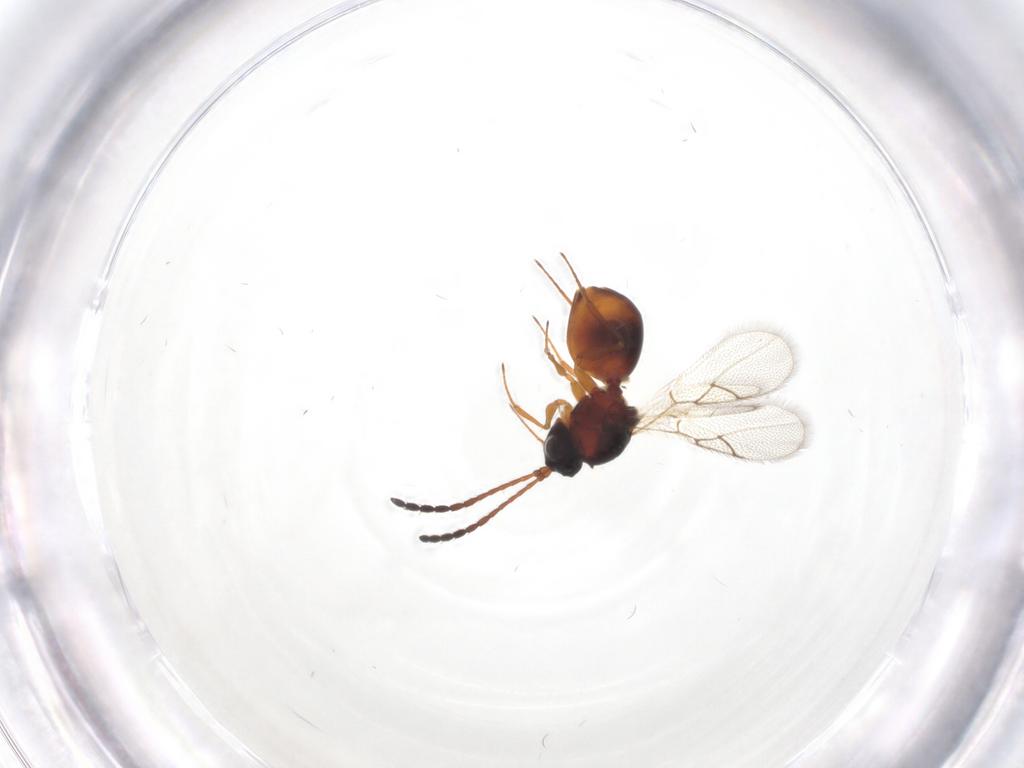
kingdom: Animalia
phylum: Arthropoda
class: Insecta
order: Hymenoptera
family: Figitidae
